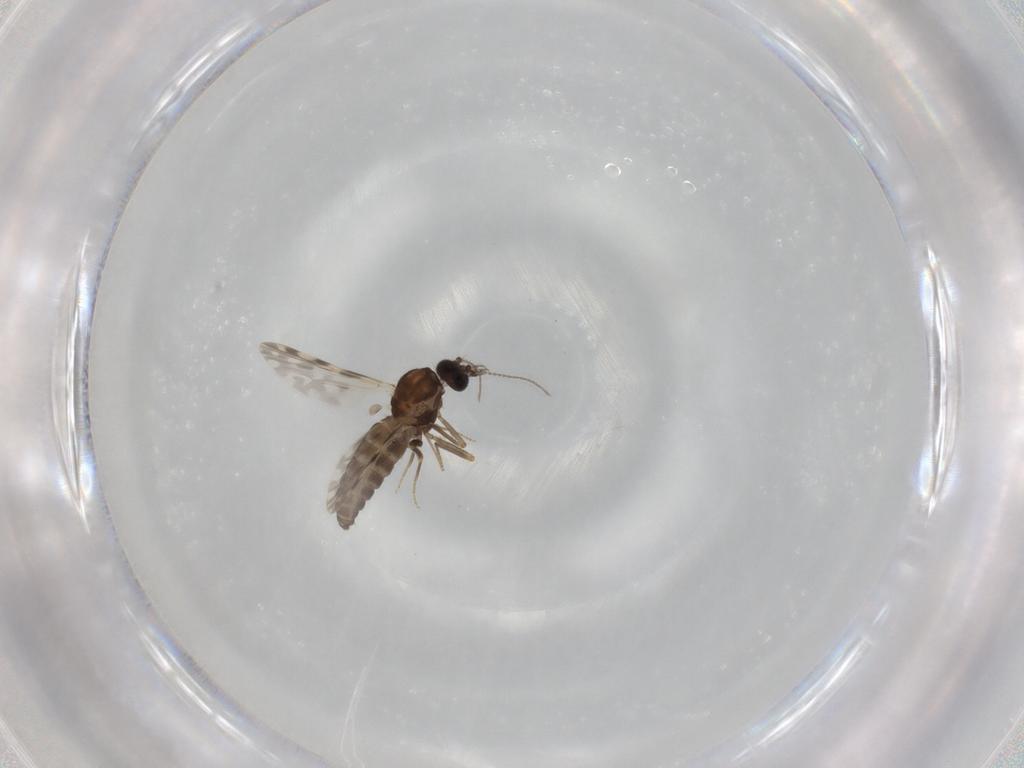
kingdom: Animalia
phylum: Arthropoda
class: Insecta
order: Diptera
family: Ceratopogonidae
